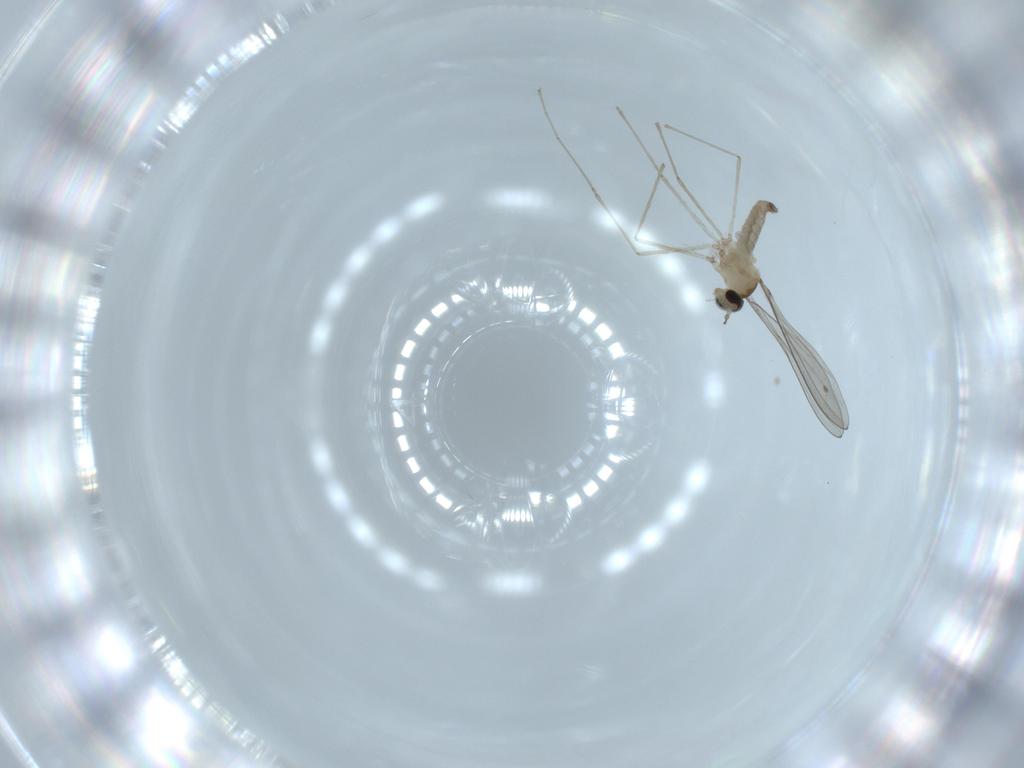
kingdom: Animalia
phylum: Arthropoda
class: Insecta
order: Diptera
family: Cecidomyiidae
